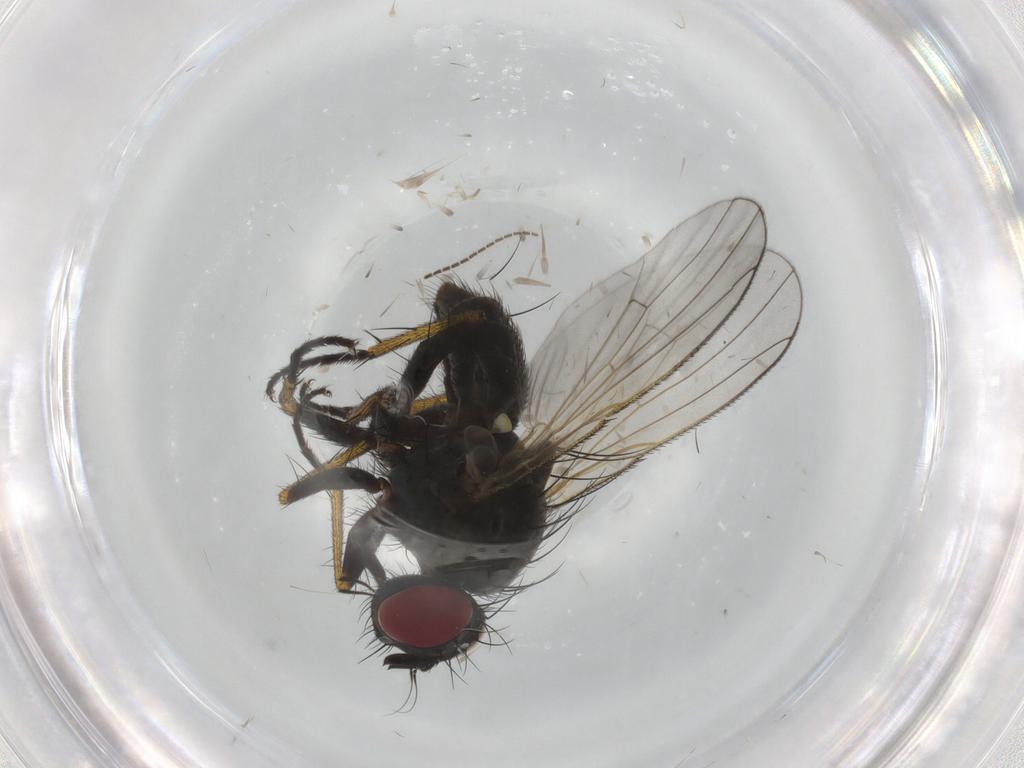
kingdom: Animalia
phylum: Arthropoda
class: Insecta
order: Diptera
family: Muscidae
